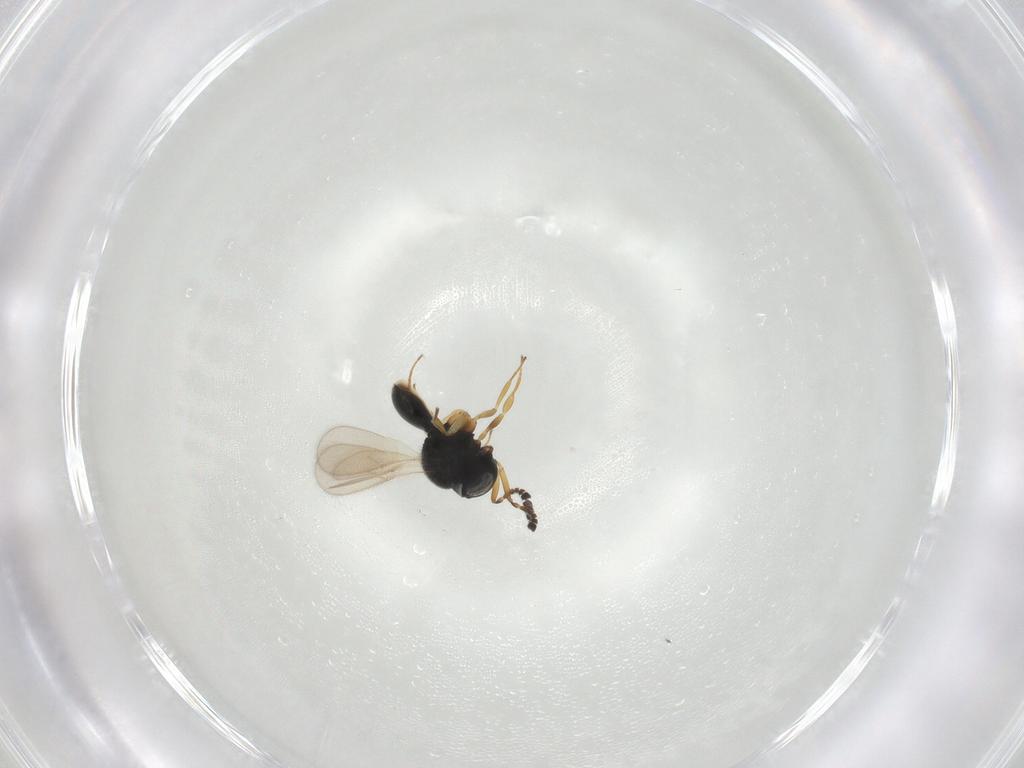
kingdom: Animalia
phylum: Arthropoda
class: Insecta
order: Hymenoptera
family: Scelionidae
